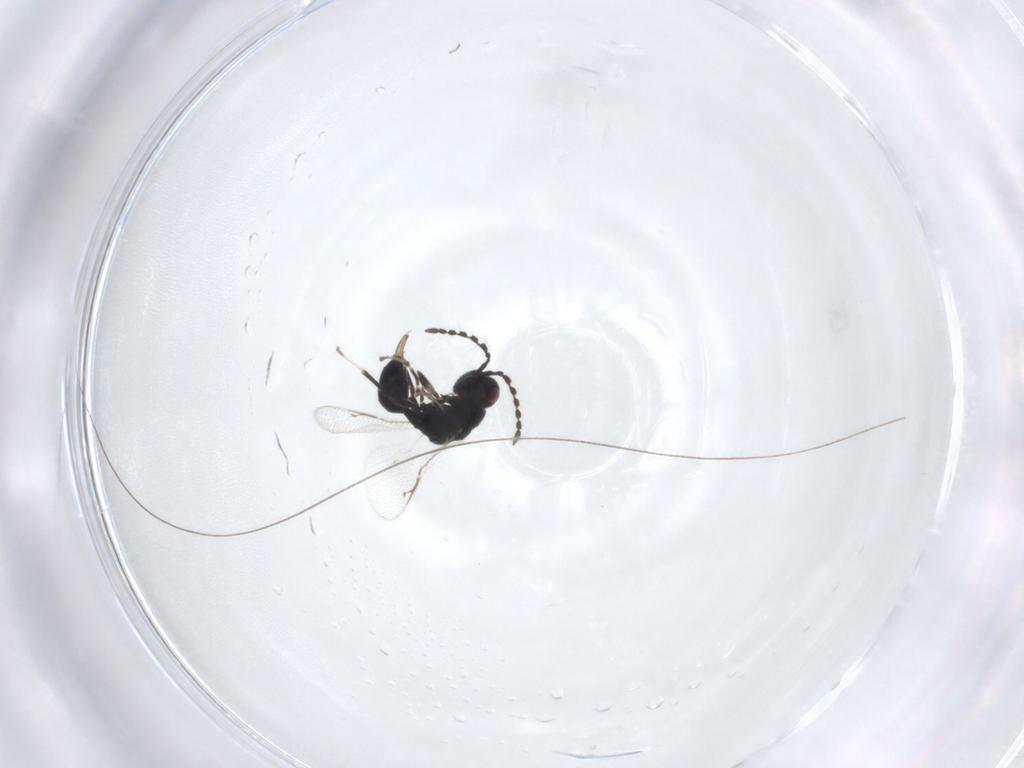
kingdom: Animalia
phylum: Arthropoda
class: Insecta
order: Hymenoptera
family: Eurytomidae
